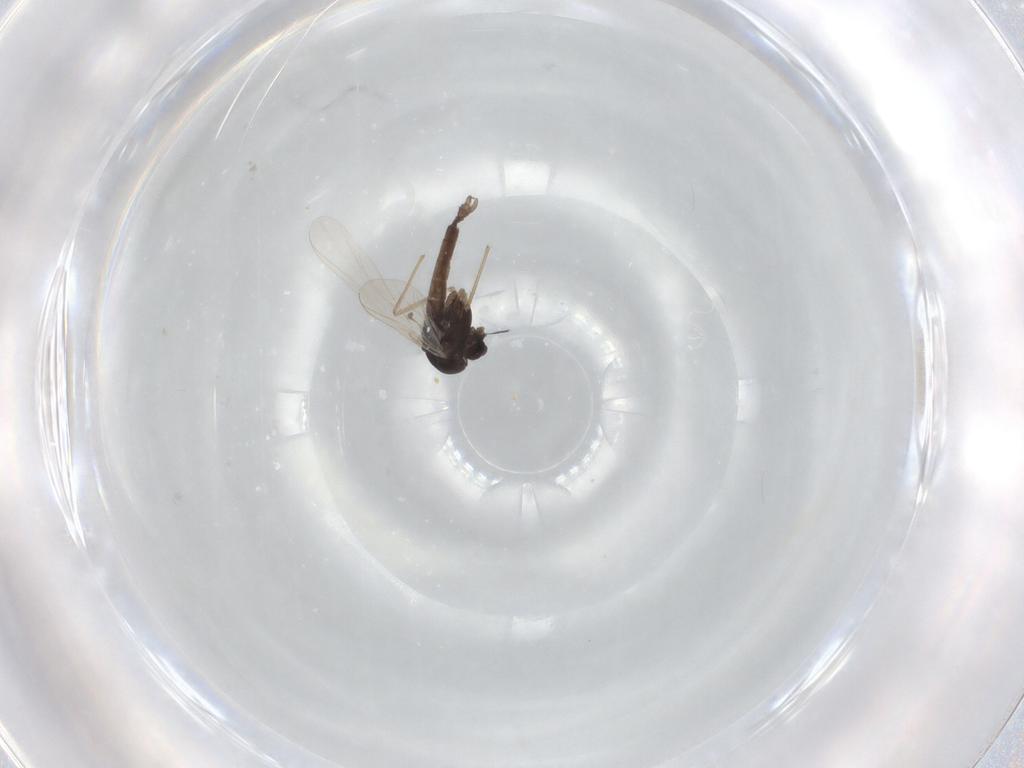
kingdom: Animalia
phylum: Arthropoda
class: Insecta
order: Diptera
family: Chironomidae
